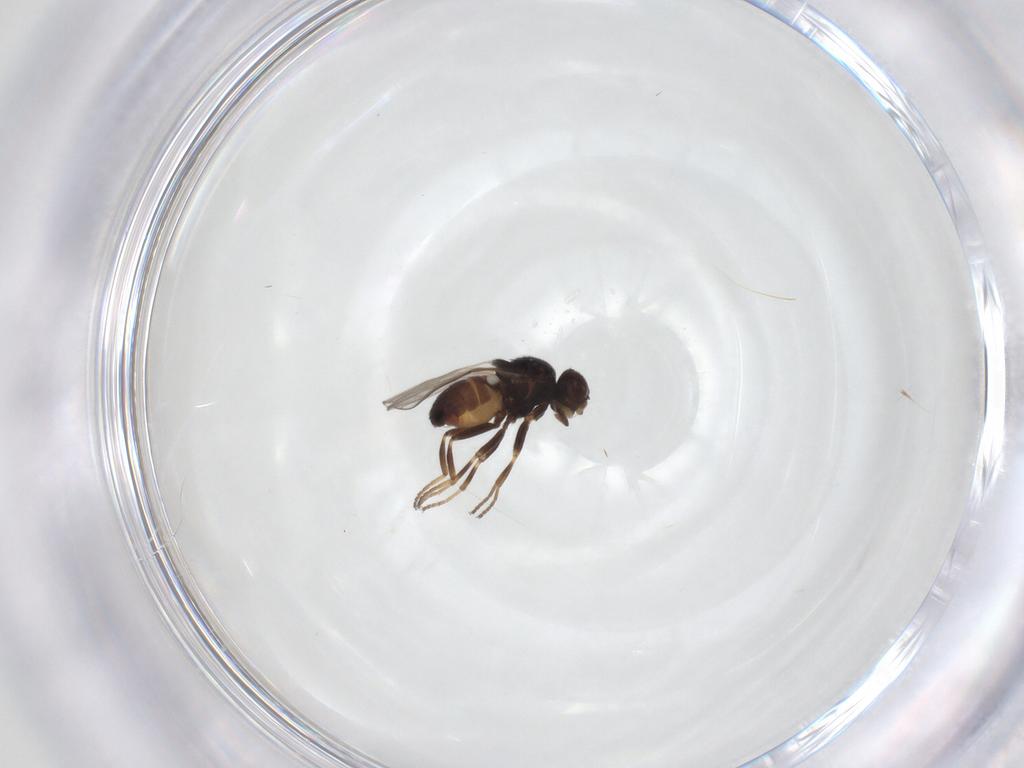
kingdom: Animalia
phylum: Arthropoda
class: Insecta
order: Diptera
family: Chloropidae
